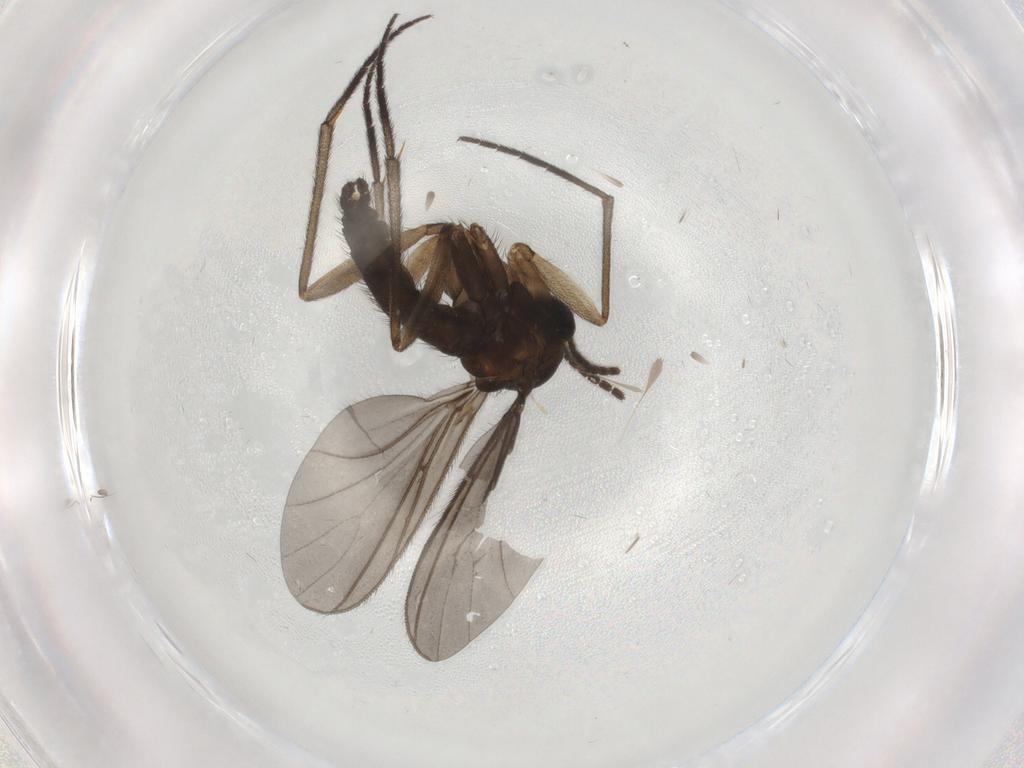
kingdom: Animalia
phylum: Arthropoda
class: Insecta
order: Diptera
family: Sciaridae
